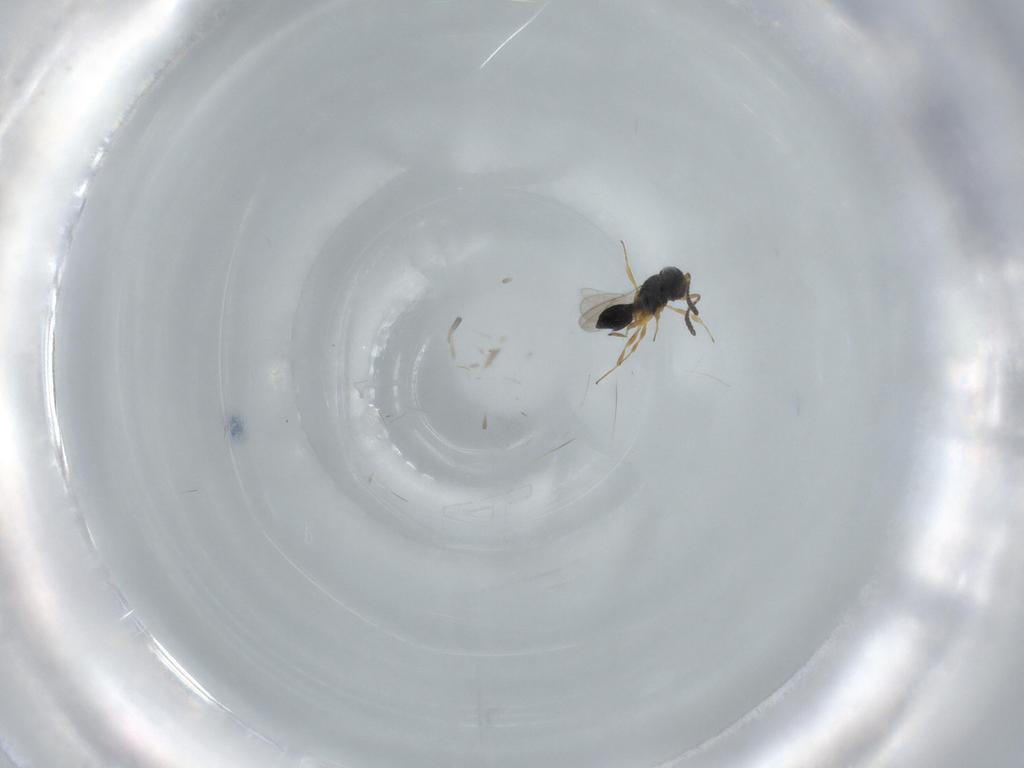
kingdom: Animalia
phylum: Arthropoda
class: Insecta
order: Hymenoptera
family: Scelionidae
